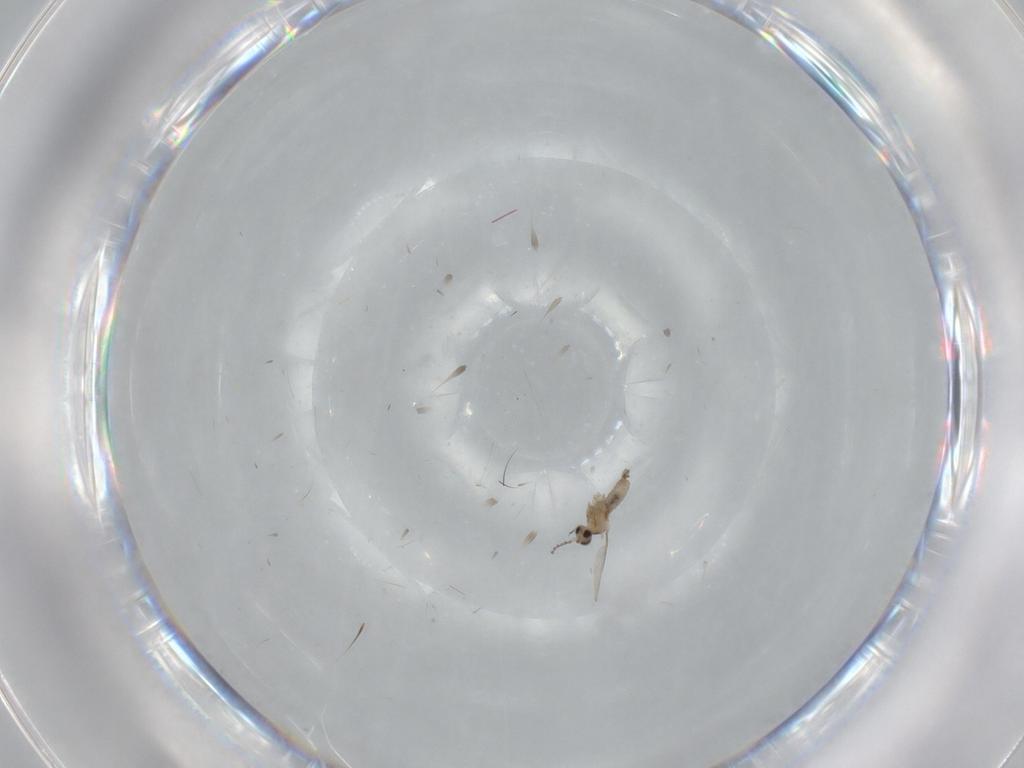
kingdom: Animalia
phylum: Arthropoda
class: Insecta
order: Diptera
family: Cecidomyiidae
